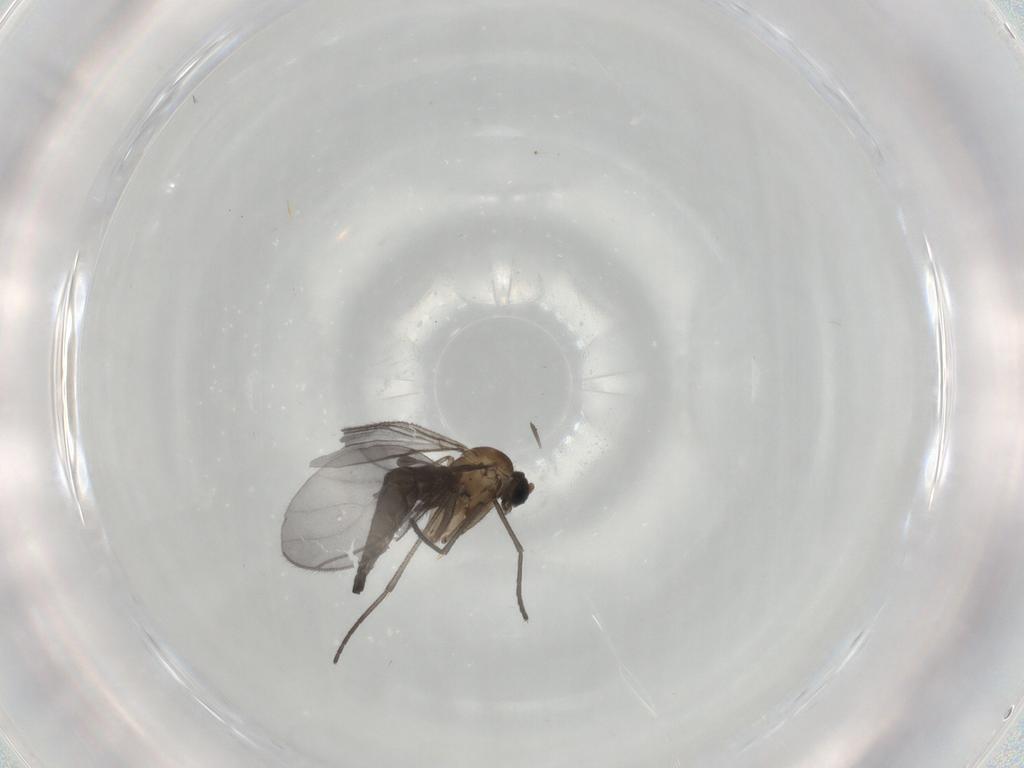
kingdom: Animalia
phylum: Arthropoda
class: Insecta
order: Diptera
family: Sciaridae
